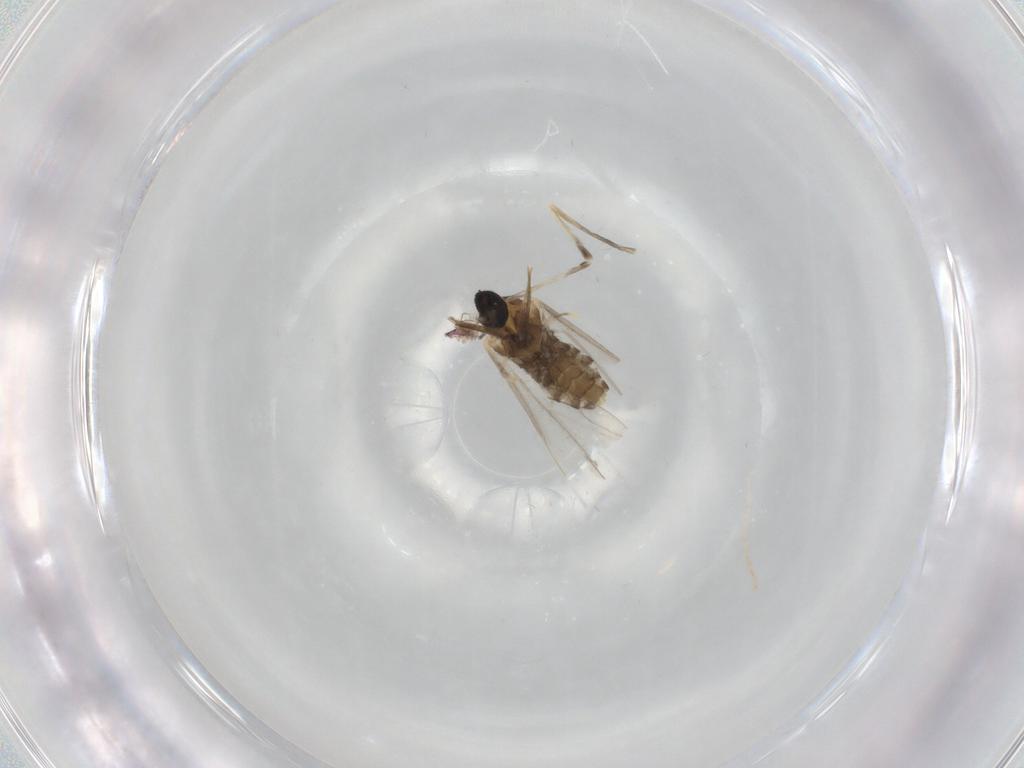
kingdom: Animalia
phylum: Arthropoda
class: Insecta
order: Diptera
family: Cecidomyiidae
